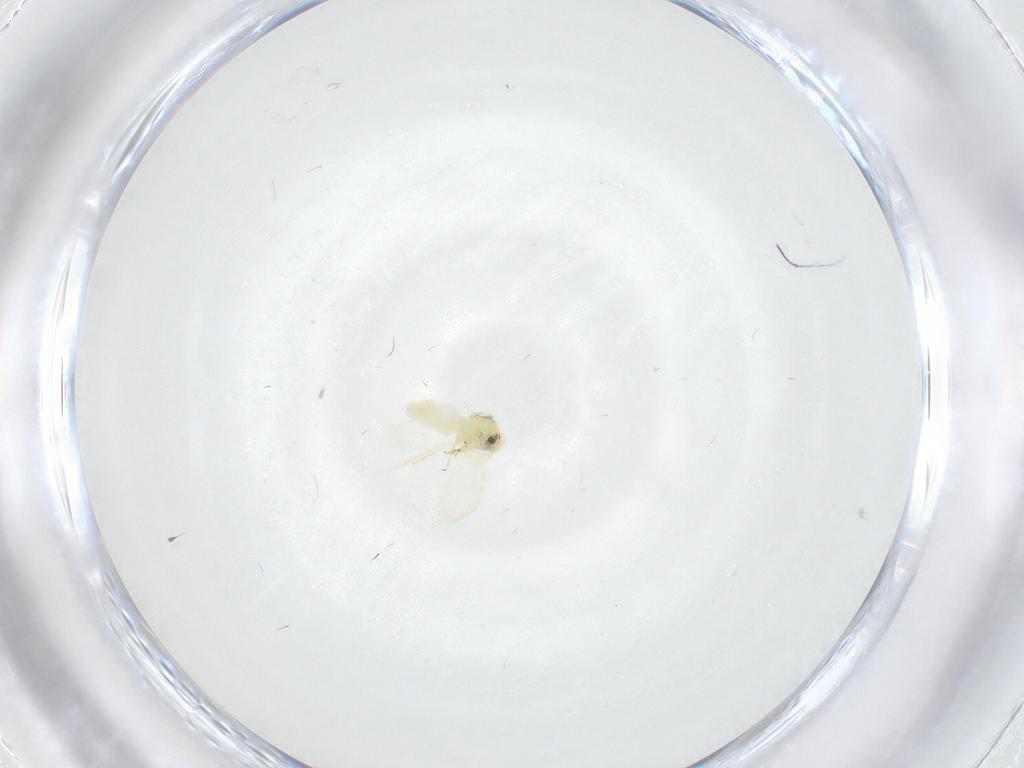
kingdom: Animalia
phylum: Arthropoda
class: Insecta
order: Hemiptera
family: Aleyrodidae
